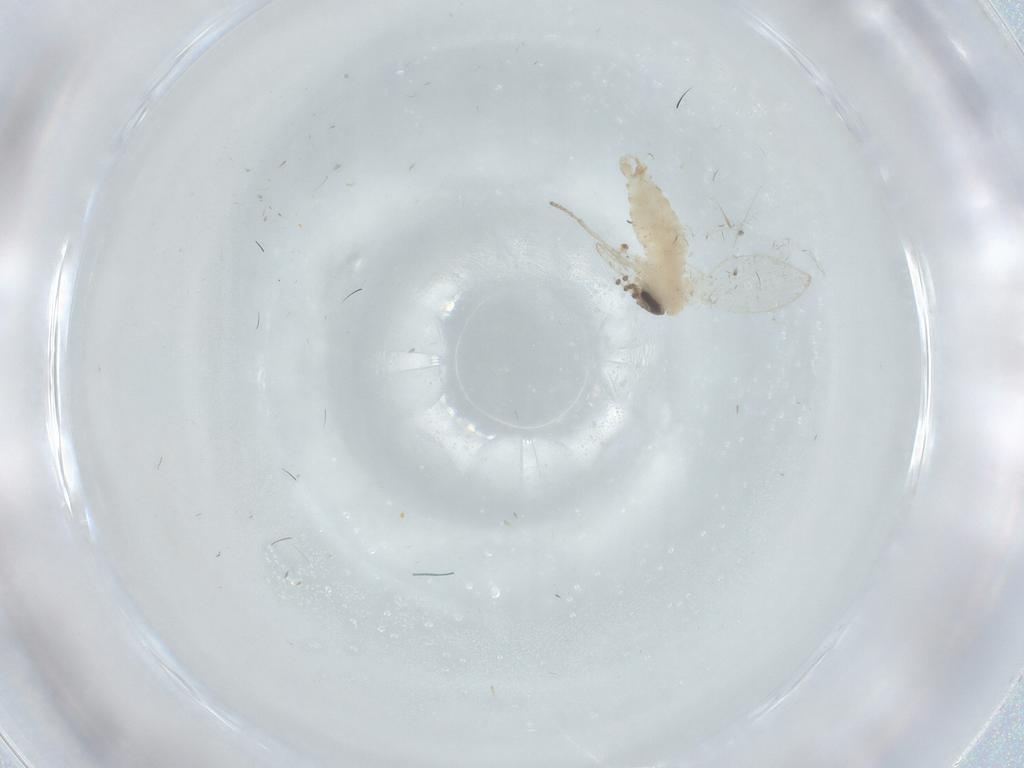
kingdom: Animalia
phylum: Arthropoda
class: Insecta
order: Diptera
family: Psychodidae
